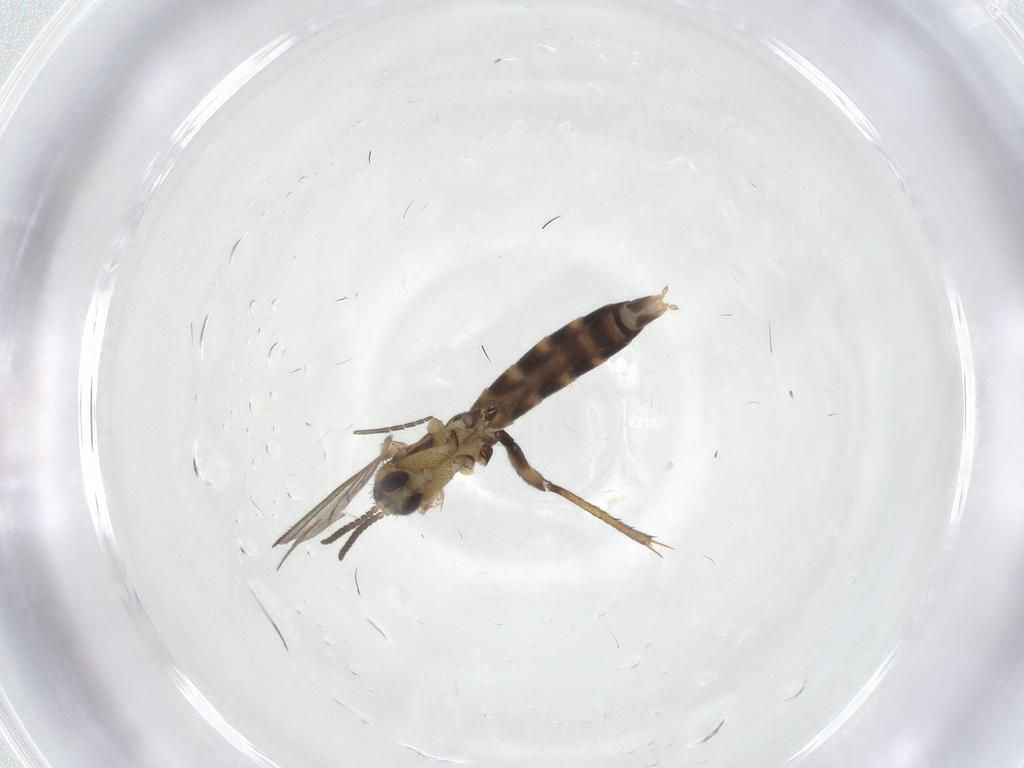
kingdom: Animalia
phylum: Arthropoda
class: Insecta
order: Diptera
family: Mycetophilidae
